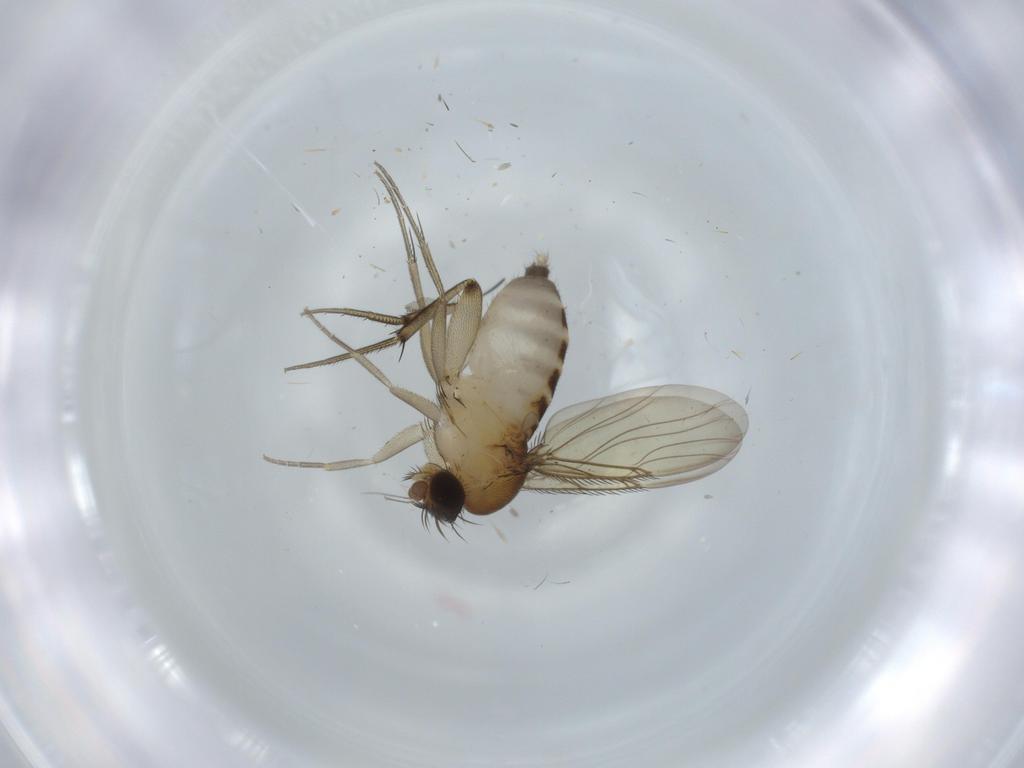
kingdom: Animalia
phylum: Arthropoda
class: Insecta
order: Diptera
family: Phoridae
